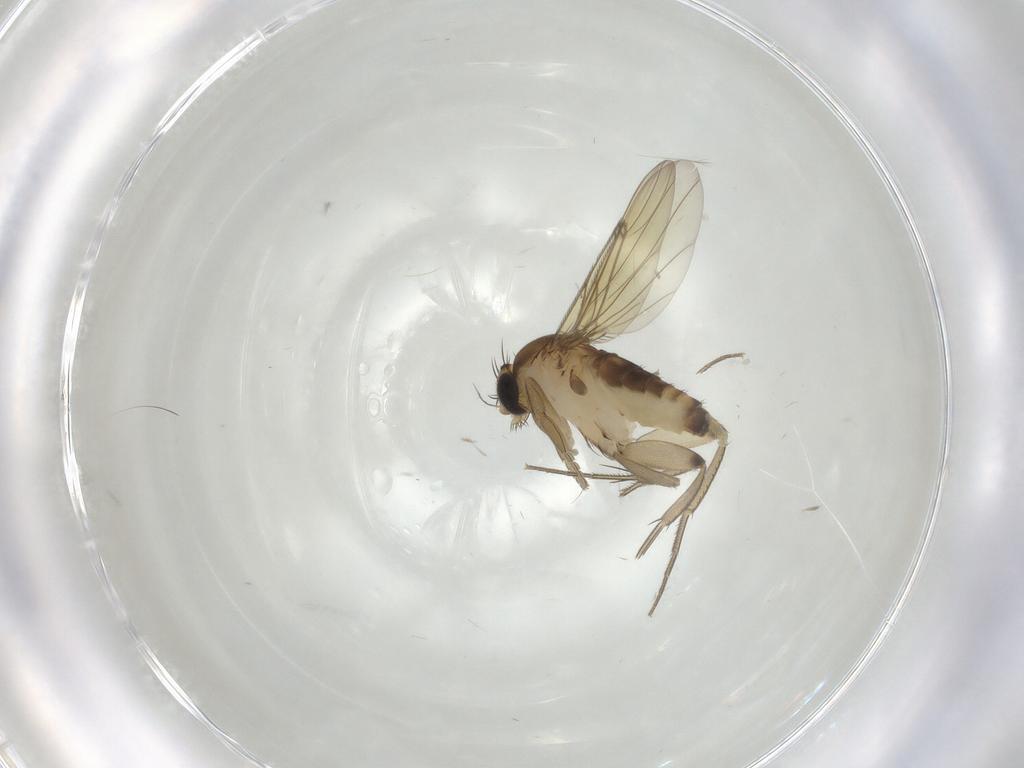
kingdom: Animalia
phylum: Arthropoda
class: Insecta
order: Diptera
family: Phoridae
